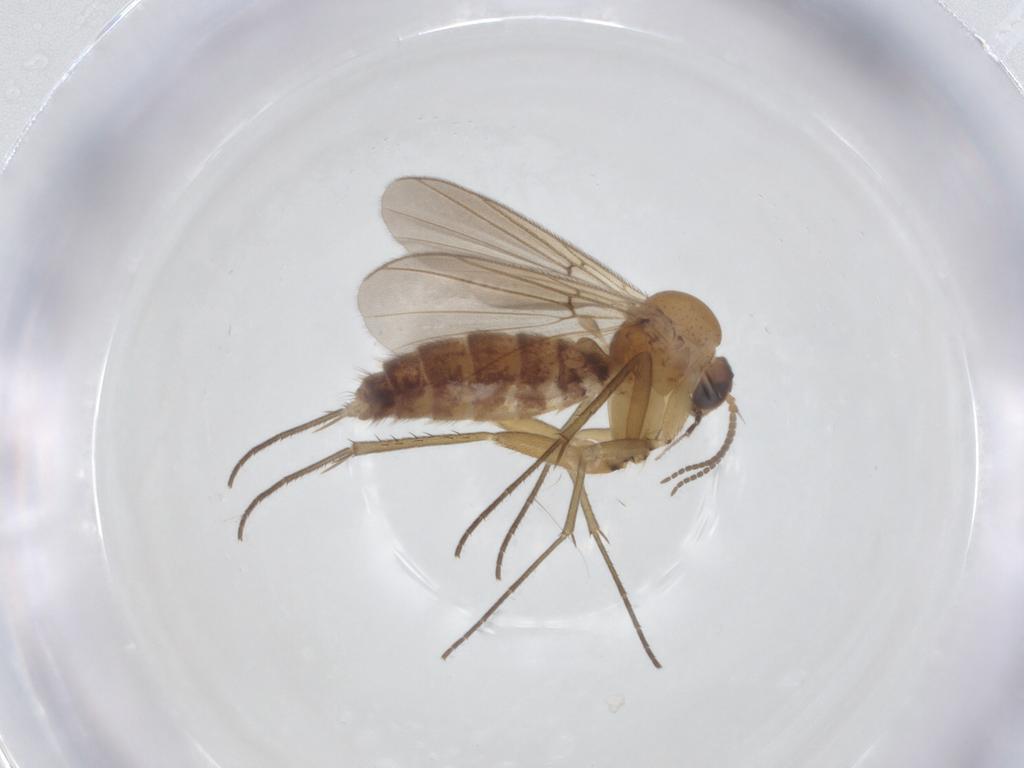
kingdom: Animalia
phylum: Arthropoda
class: Insecta
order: Diptera
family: Mycetophilidae
